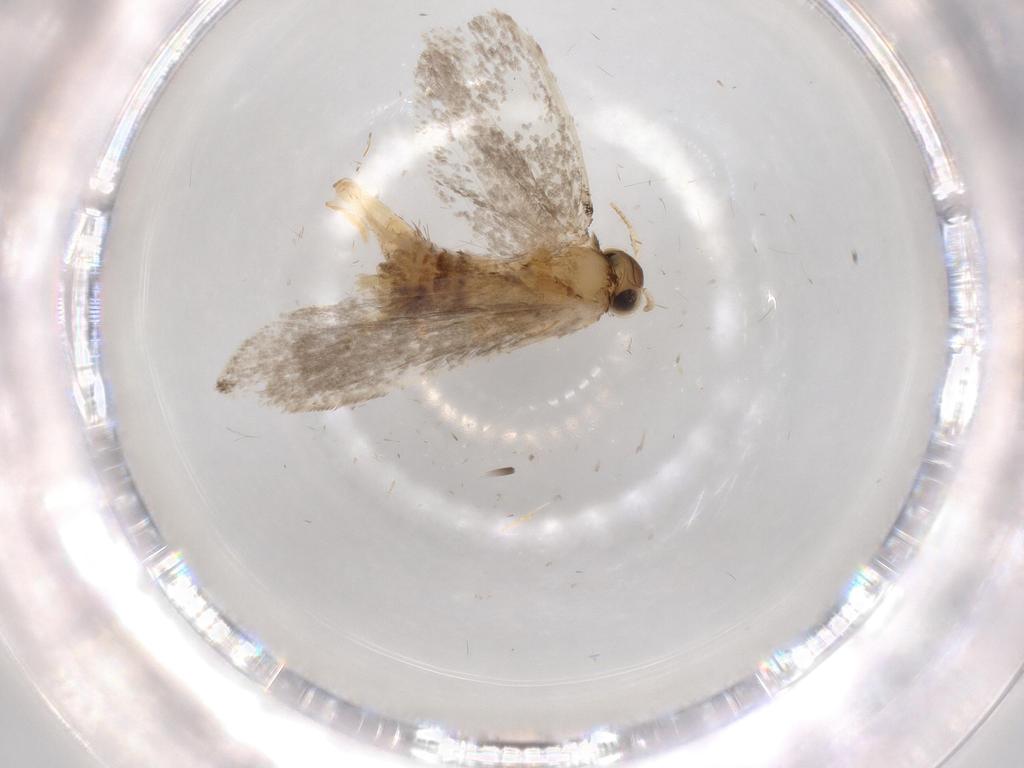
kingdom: Animalia
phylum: Arthropoda
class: Insecta
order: Lepidoptera
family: Tineidae
